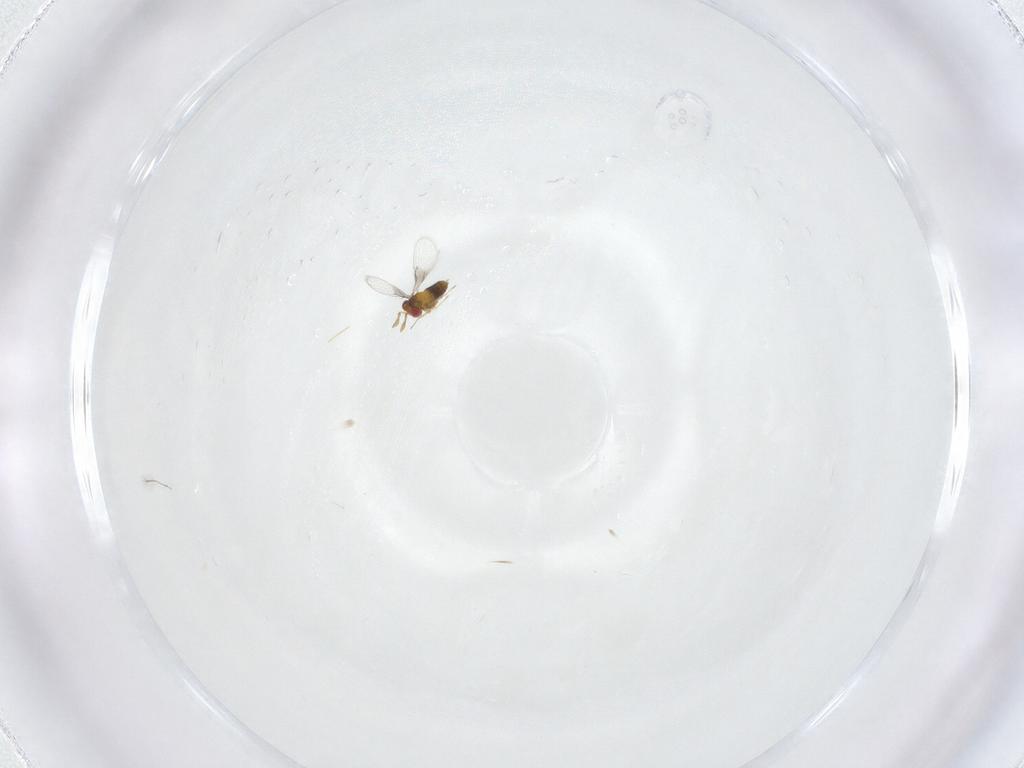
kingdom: Animalia
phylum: Arthropoda
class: Insecta
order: Hymenoptera
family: Trichogrammatidae
